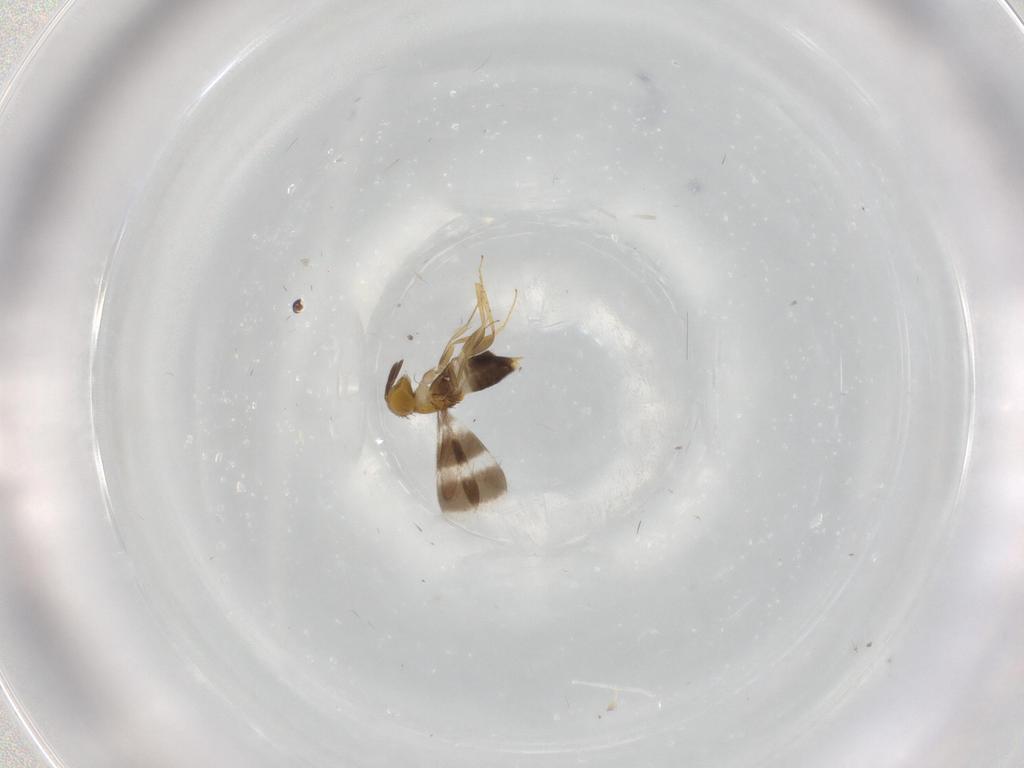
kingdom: Animalia
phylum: Arthropoda
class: Insecta
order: Hymenoptera
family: Aphelinidae
